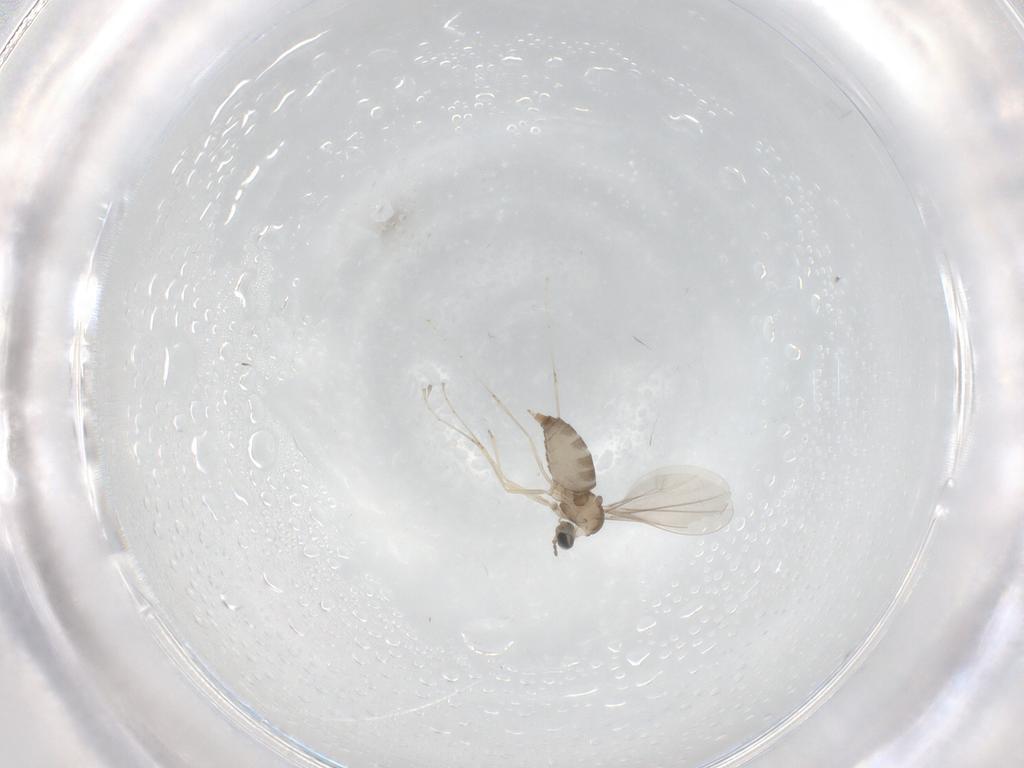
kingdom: Animalia
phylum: Arthropoda
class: Insecta
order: Diptera
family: Cecidomyiidae
